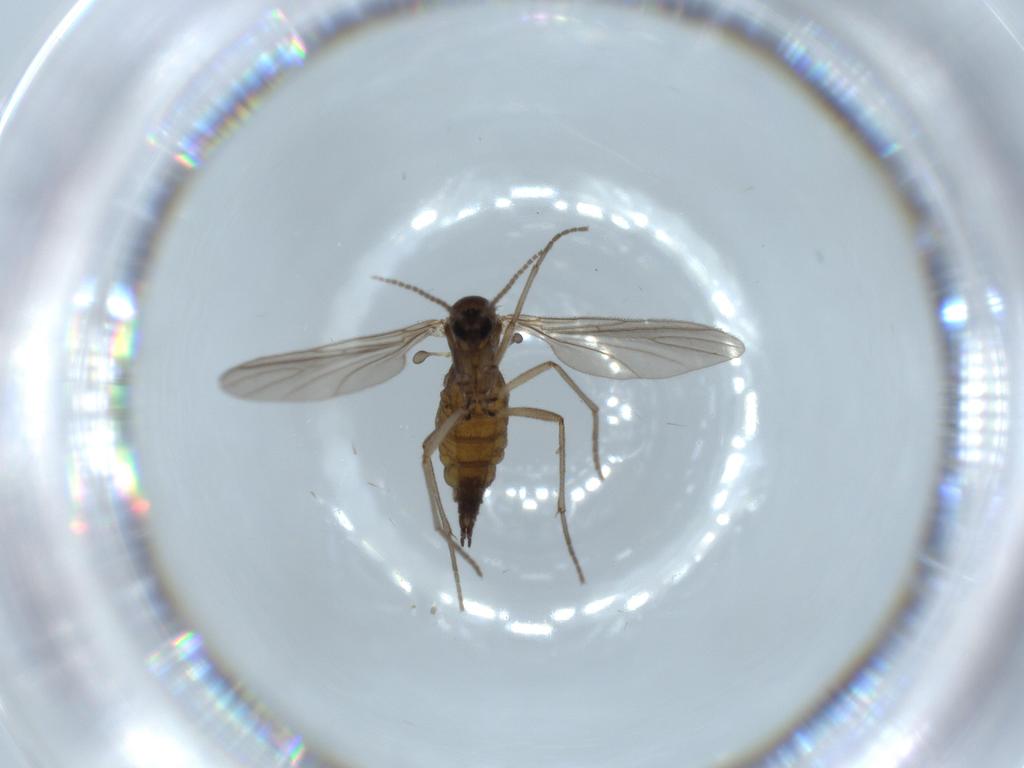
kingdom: Animalia
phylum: Arthropoda
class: Insecta
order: Diptera
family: Sciaridae
